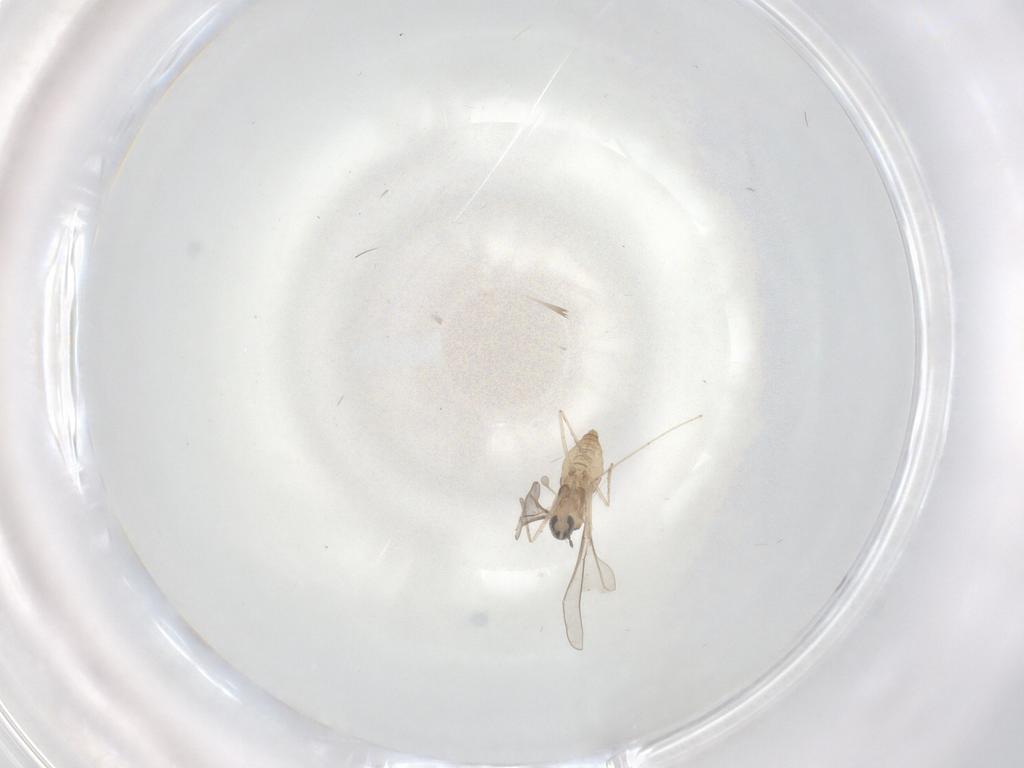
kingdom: Animalia
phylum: Arthropoda
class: Insecta
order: Diptera
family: Cecidomyiidae
